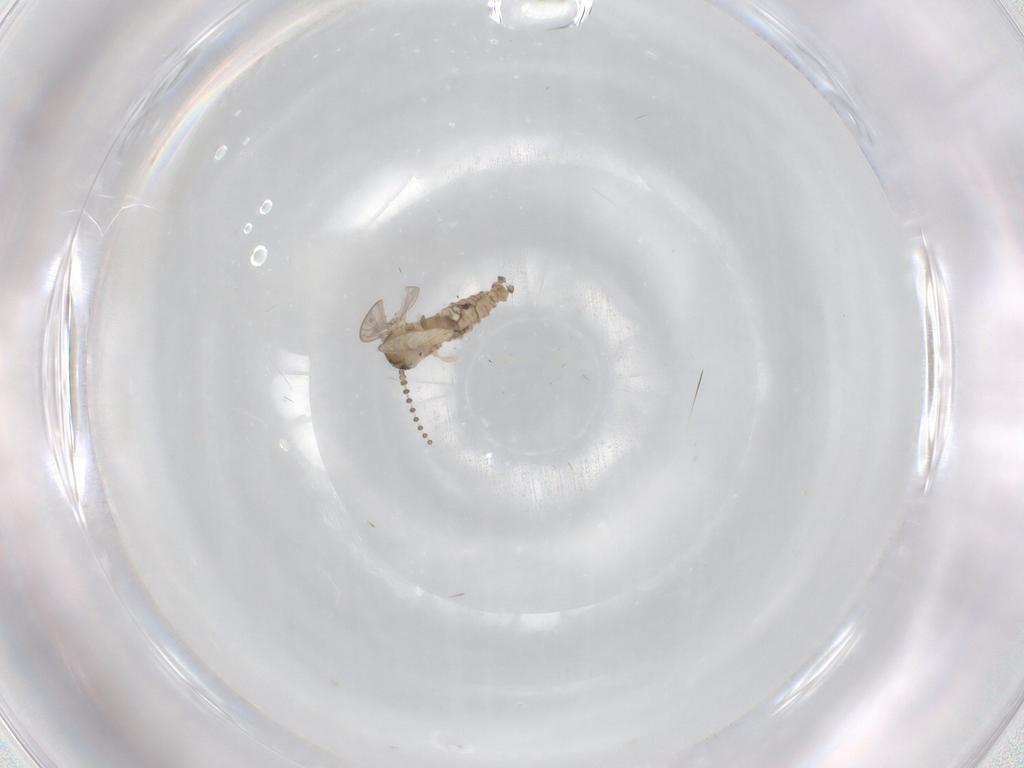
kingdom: Animalia
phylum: Arthropoda
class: Insecta
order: Diptera
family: Psychodidae
